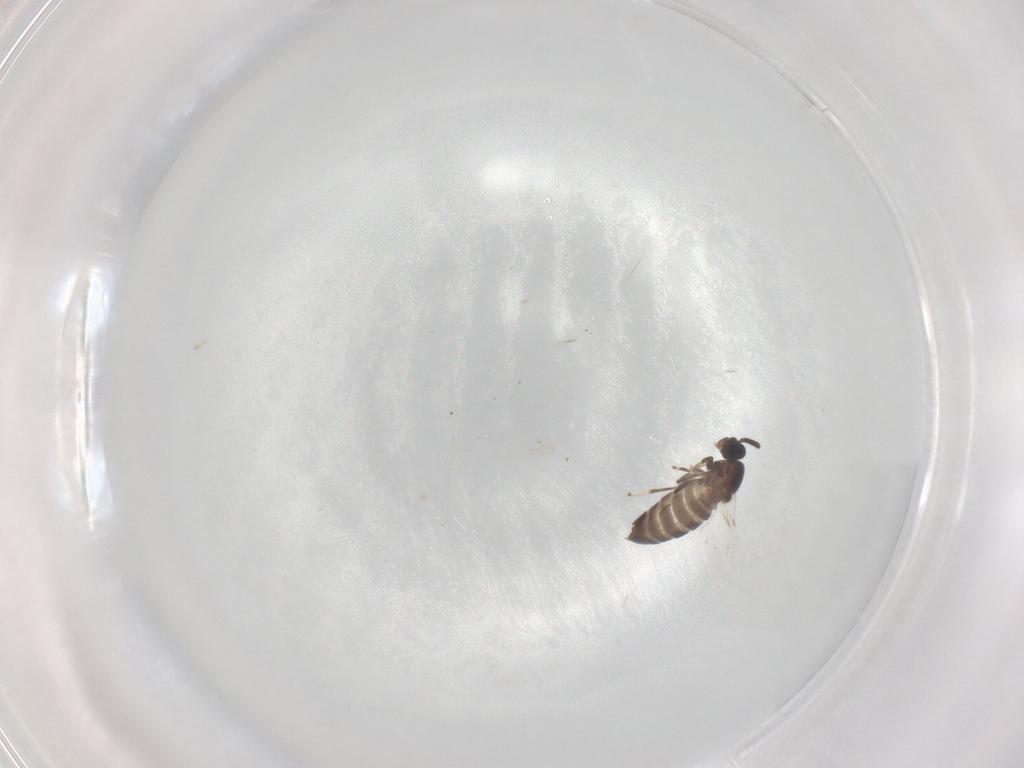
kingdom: Animalia
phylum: Arthropoda
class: Insecta
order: Diptera
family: Scatopsidae
